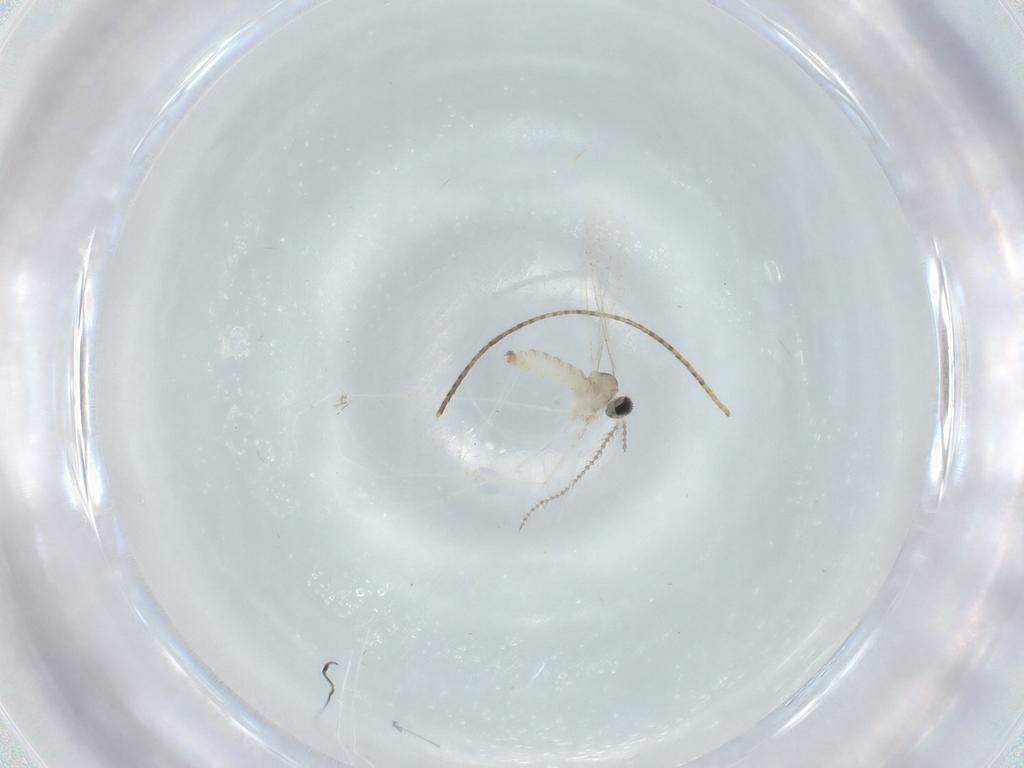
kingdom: Animalia
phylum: Arthropoda
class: Insecta
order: Diptera
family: Cecidomyiidae
